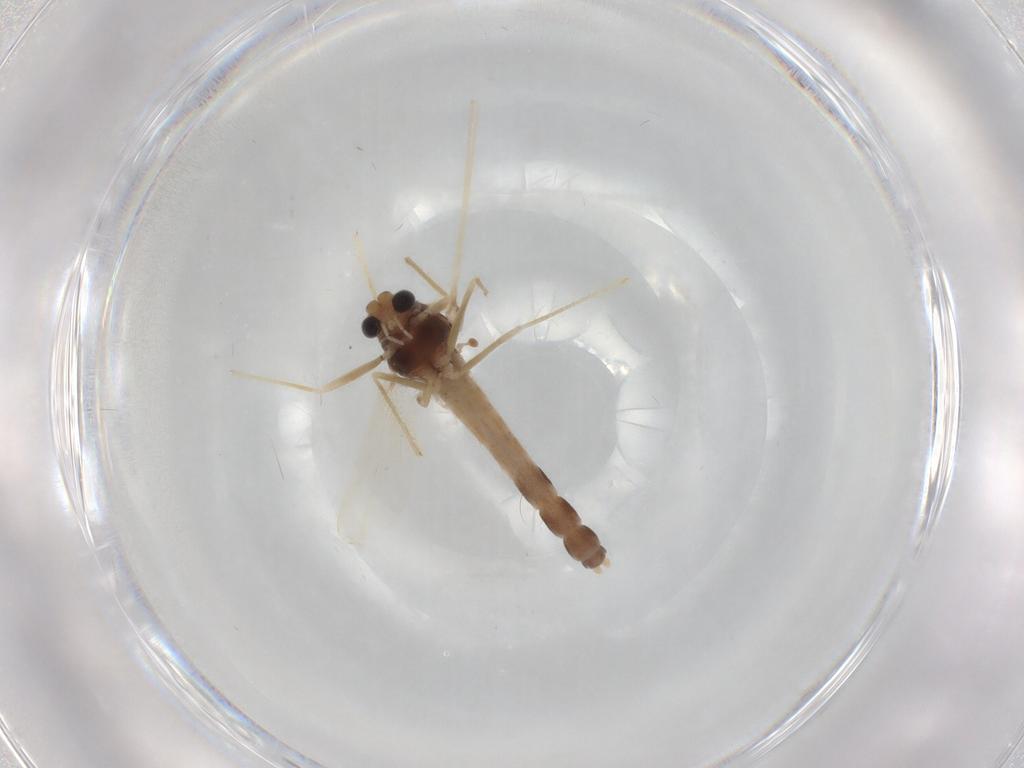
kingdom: Animalia
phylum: Arthropoda
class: Insecta
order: Diptera
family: Chironomidae
